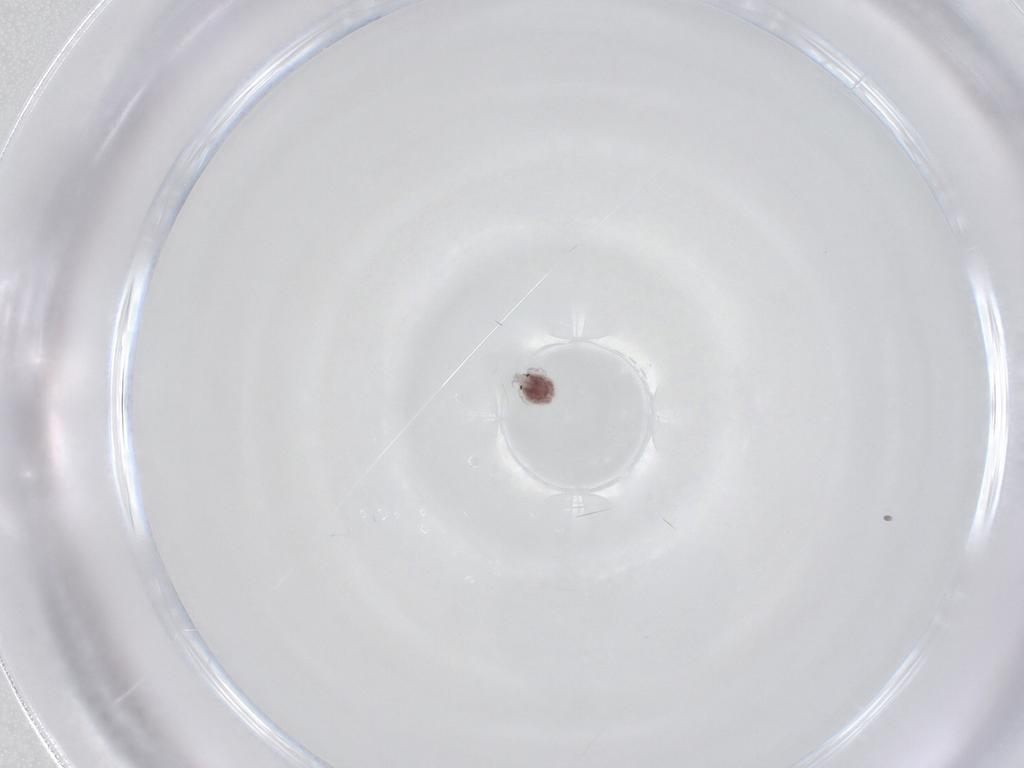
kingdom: Animalia
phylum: Arthropoda
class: Arachnida
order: Trombidiformes
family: Pionidae
